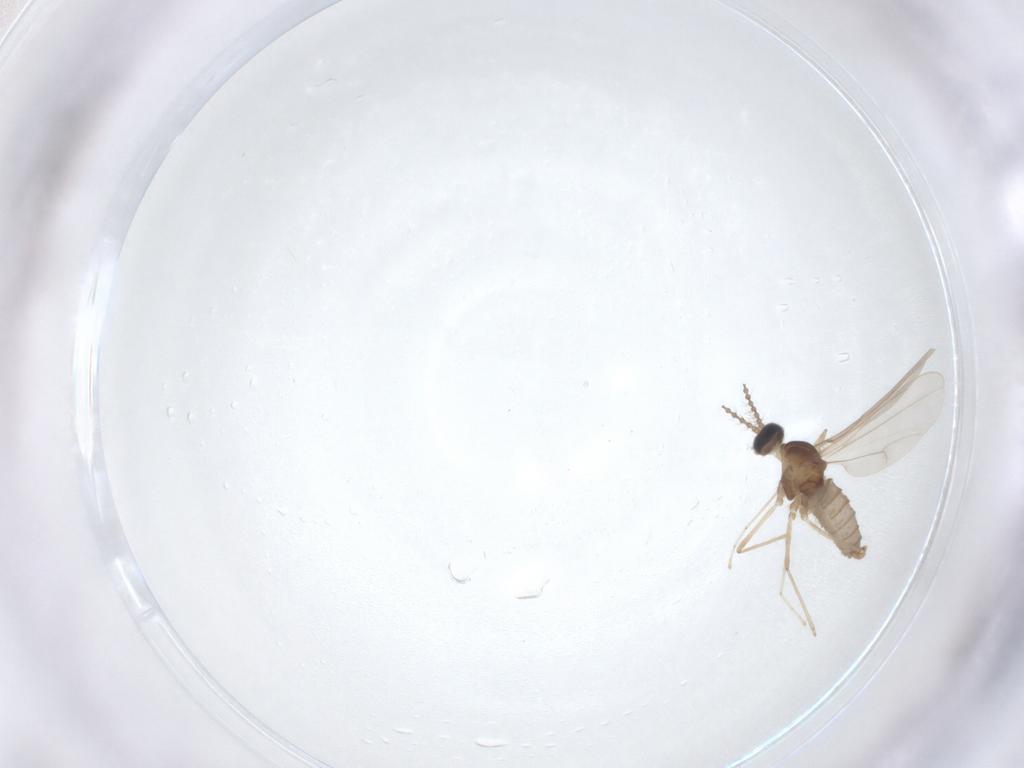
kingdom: Animalia
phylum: Arthropoda
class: Insecta
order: Diptera
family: Cecidomyiidae
